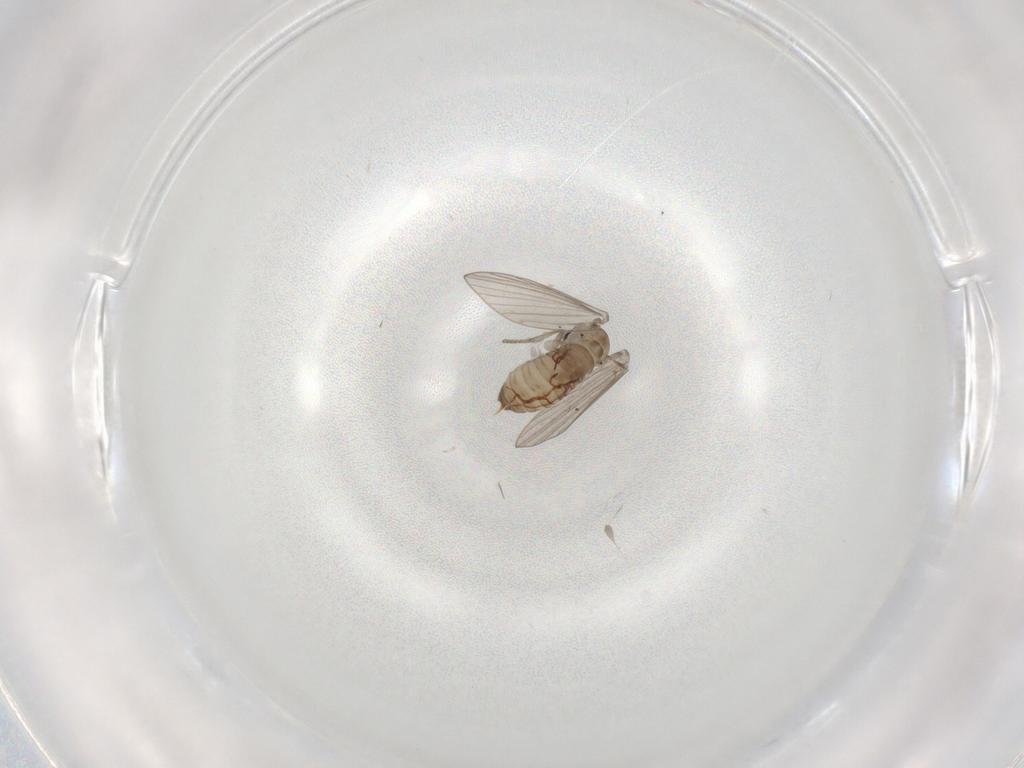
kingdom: Animalia
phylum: Arthropoda
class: Insecta
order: Diptera
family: Psychodidae
